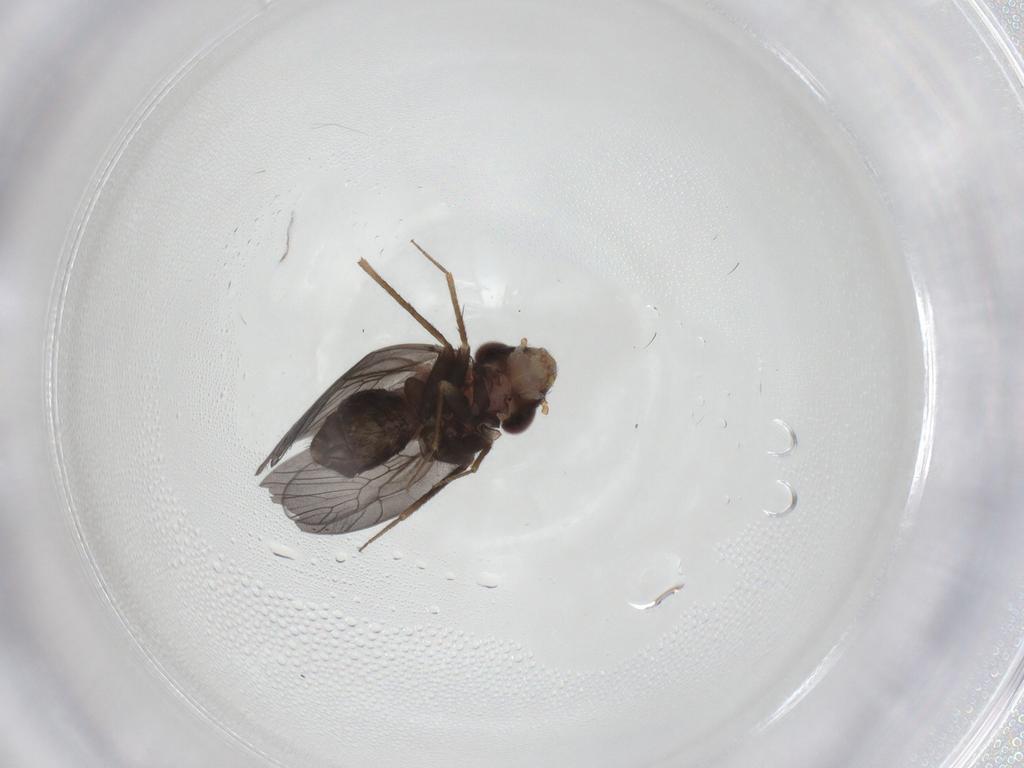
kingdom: Animalia
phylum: Arthropoda
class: Insecta
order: Psocodea
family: Lepidopsocidae
